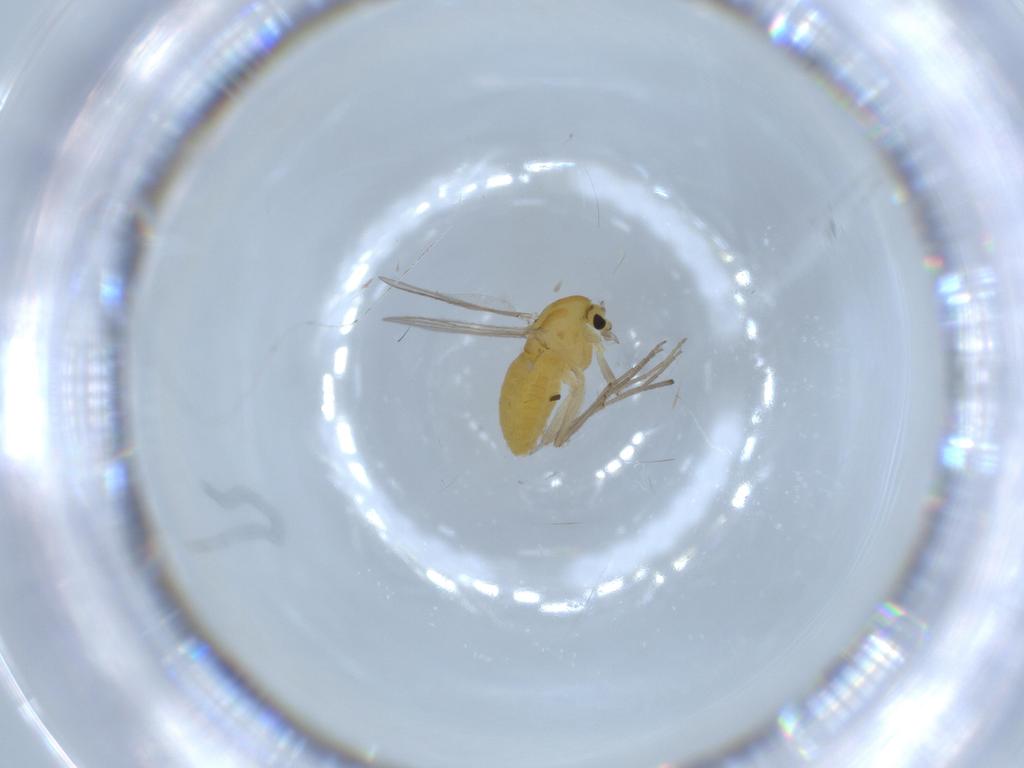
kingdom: Animalia
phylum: Arthropoda
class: Insecta
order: Diptera
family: Chironomidae
